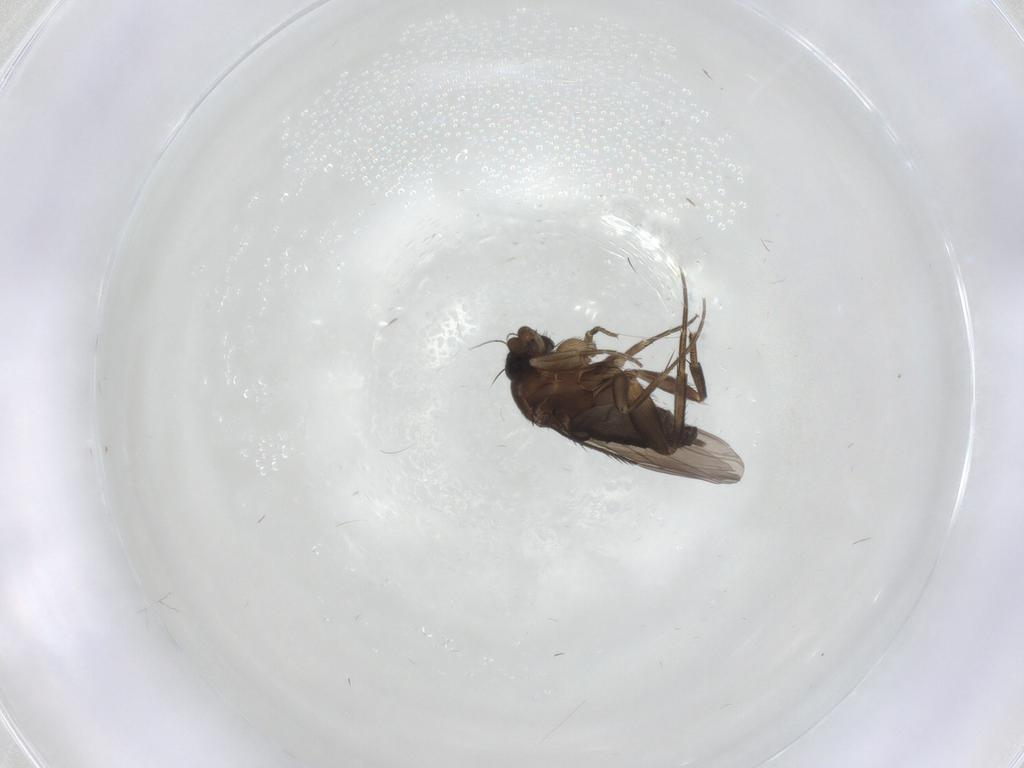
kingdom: Animalia
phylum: Arthropoda
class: Insecta
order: Diptera
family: Phoridae
